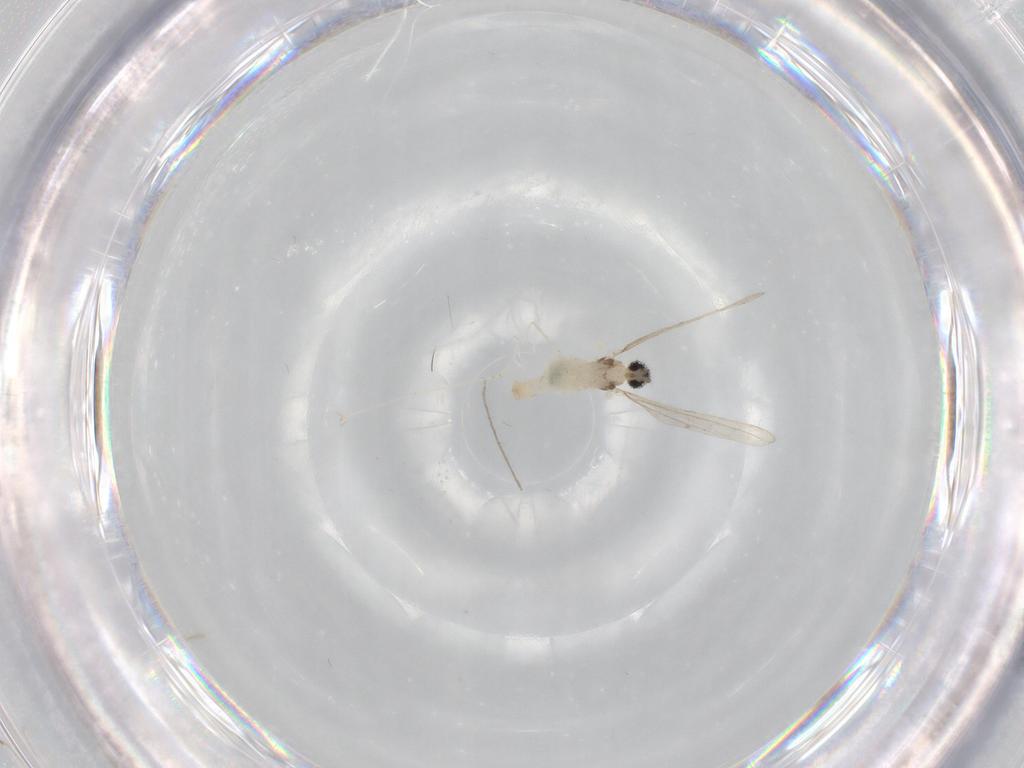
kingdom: Animalia
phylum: Arthropoda
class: Insecta
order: Diptera
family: Cecidomyiidae
